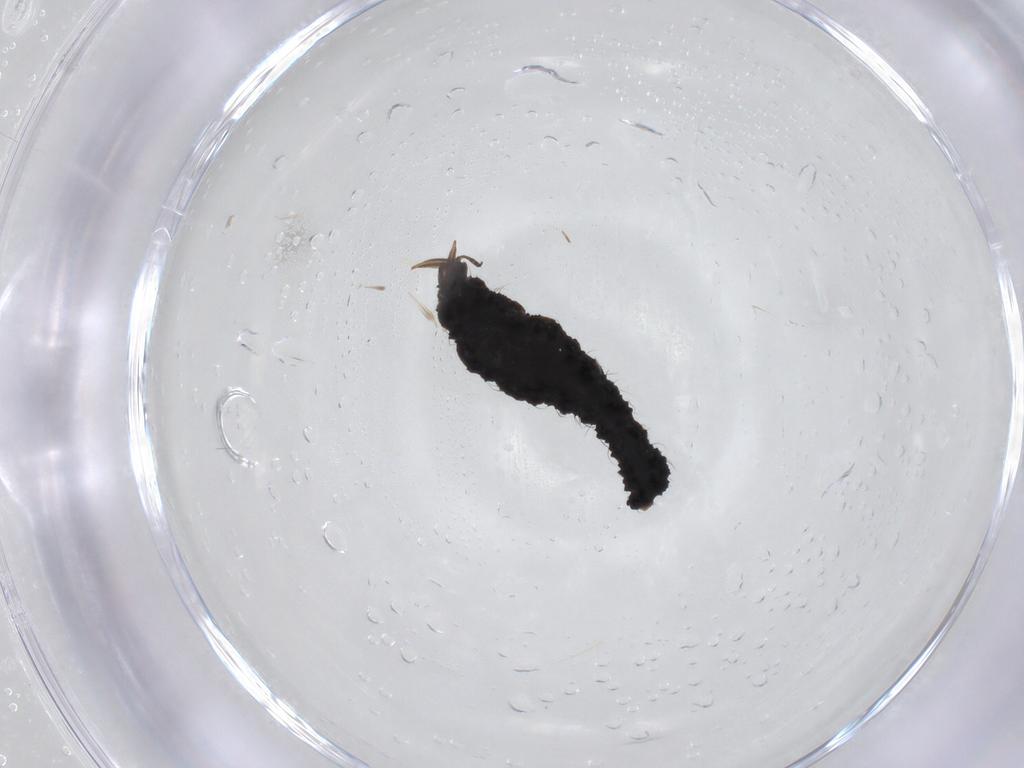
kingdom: Animalia
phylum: Arthropoda
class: Insecta
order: Neuroptera
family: Hemerobiidae
